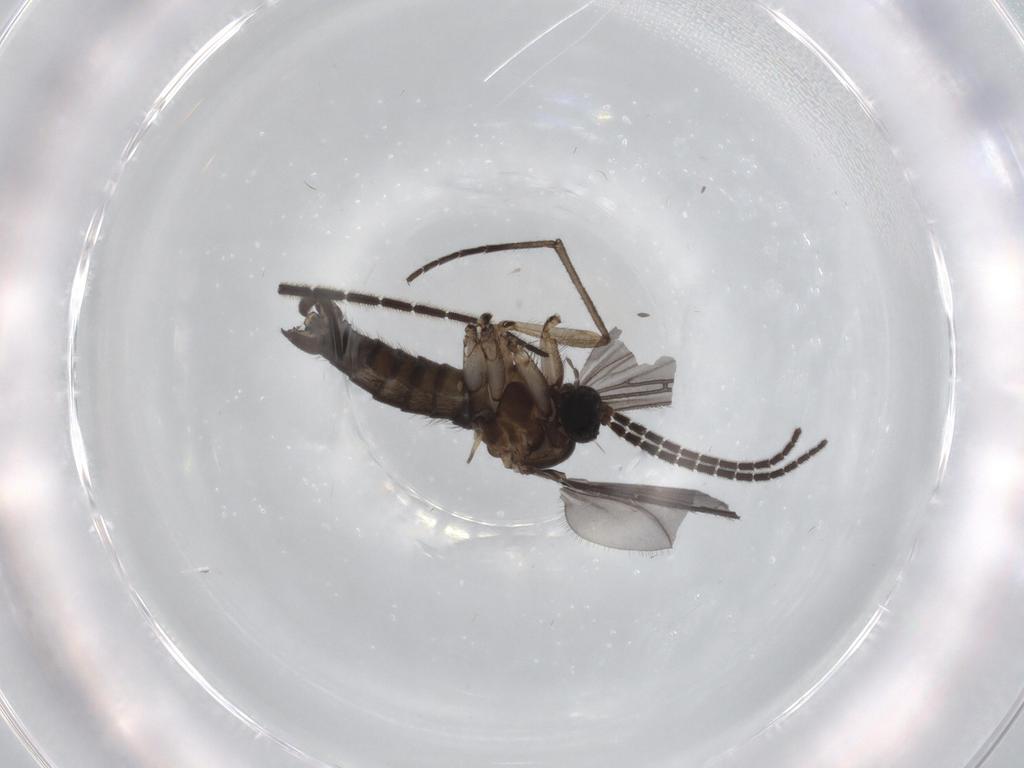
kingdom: Animalia
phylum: Arthropoda
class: Insecta
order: Diptera
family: Sciaridae
